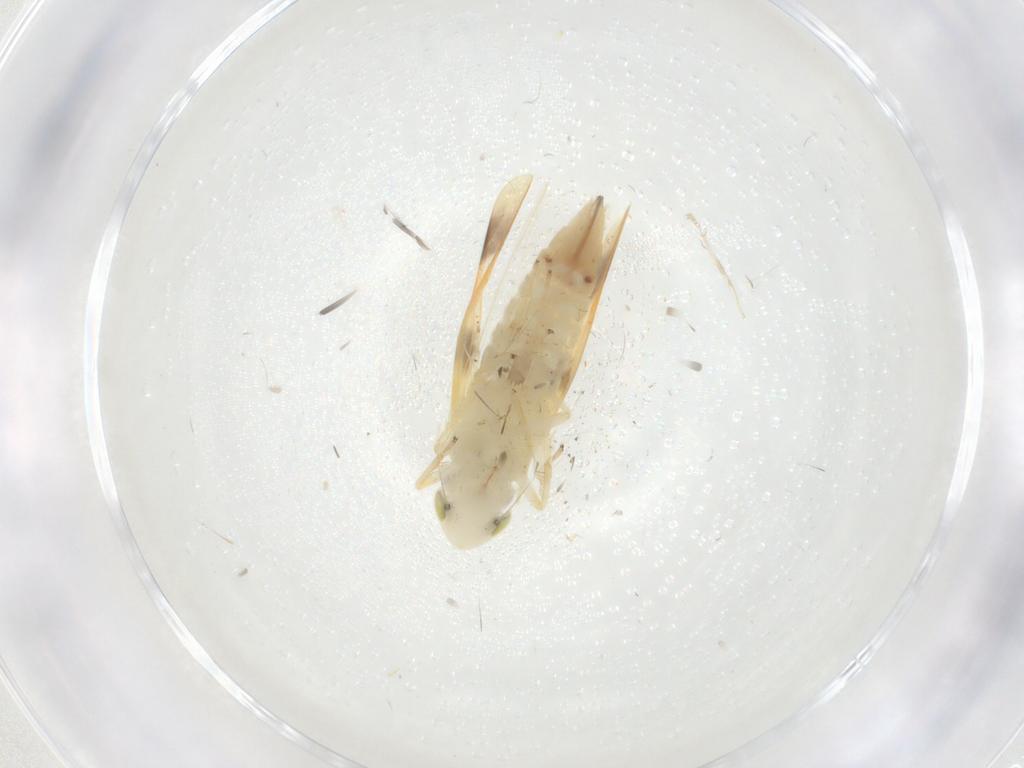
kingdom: Animalia
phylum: Arthropoda
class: Insecta
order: Hemiptera
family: Cicadellidae
